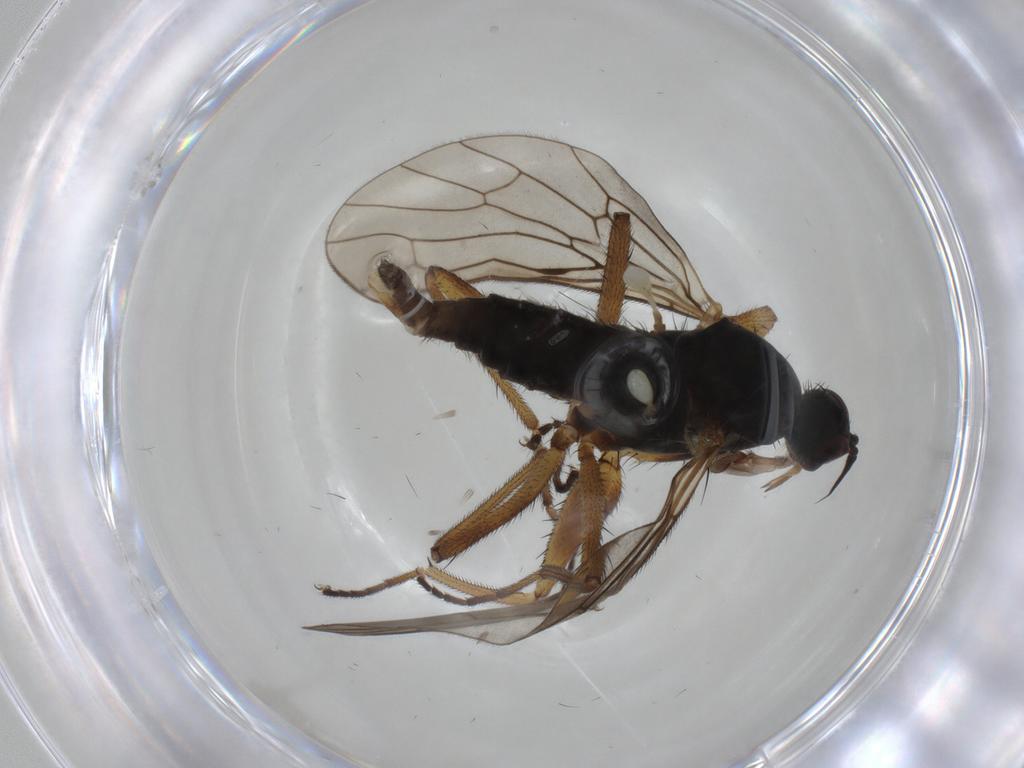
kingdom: Animalia
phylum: Arthropoda
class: Insecta
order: Diptera
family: Empididae
